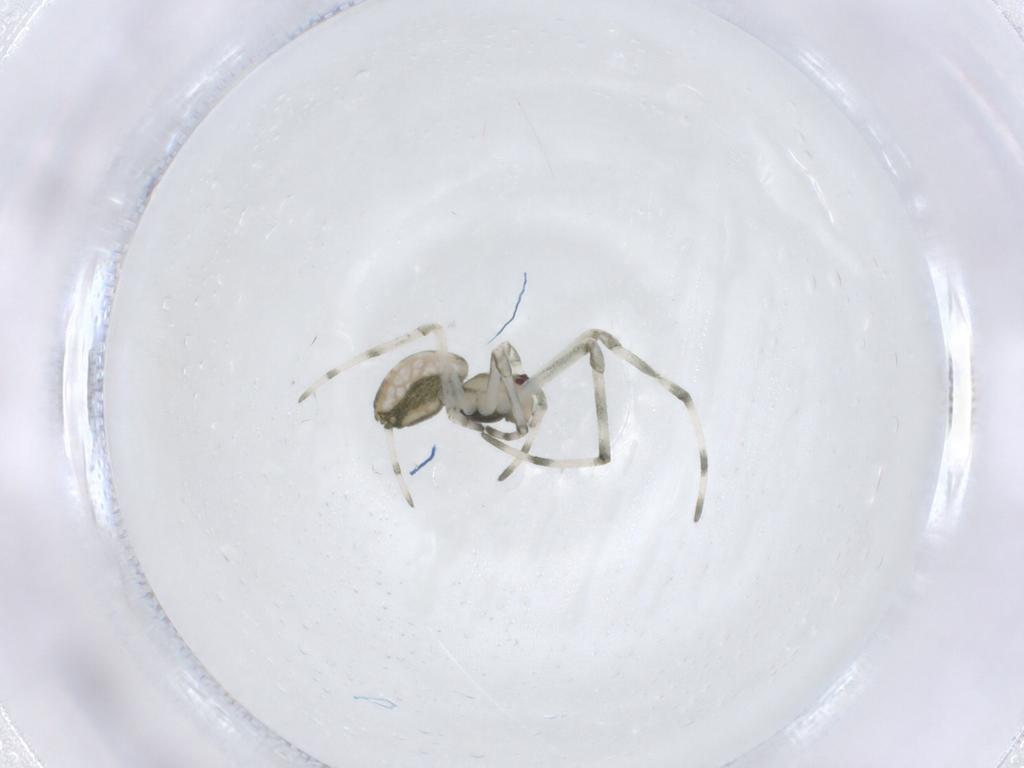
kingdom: Animalia
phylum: Arthropoda
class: Arachnida
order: Araneae
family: Tetragnathidae
